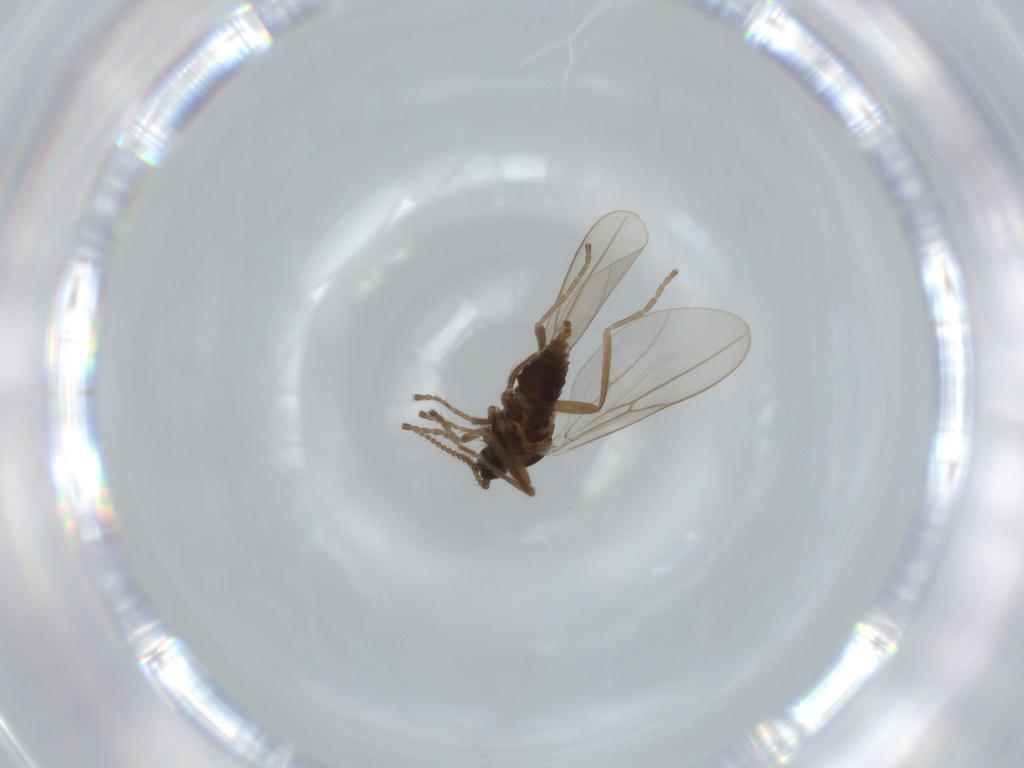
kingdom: Animalia
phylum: Arthropoda
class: Insecta
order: Diptera
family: Cecidomyiidae
